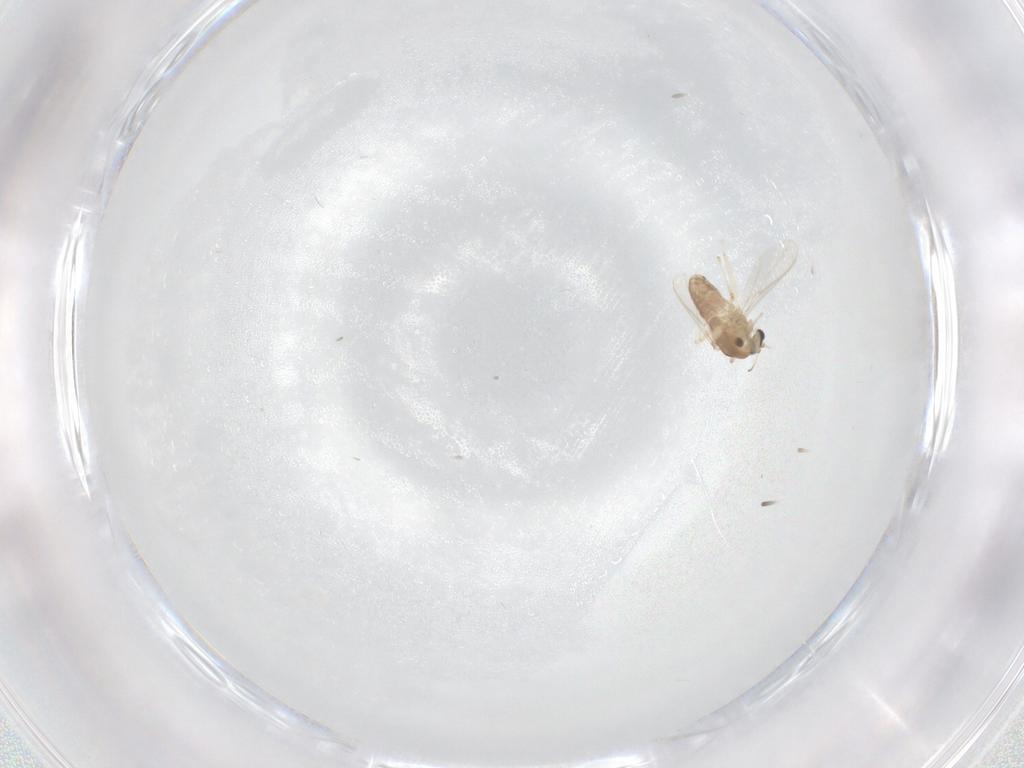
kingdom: Animalia
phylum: Arthropoda
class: Insecta
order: Diptera
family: Chironomidae
